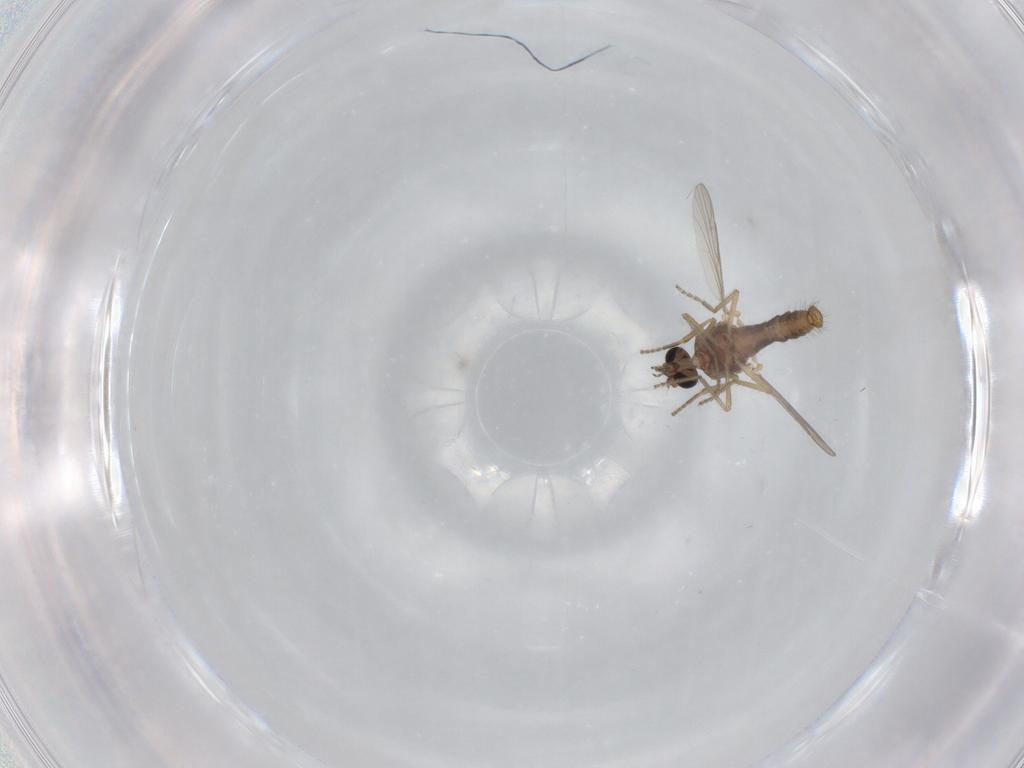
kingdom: Animalia
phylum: Arthropoda
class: Insecta
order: Diptera
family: Ceratopogonidae
